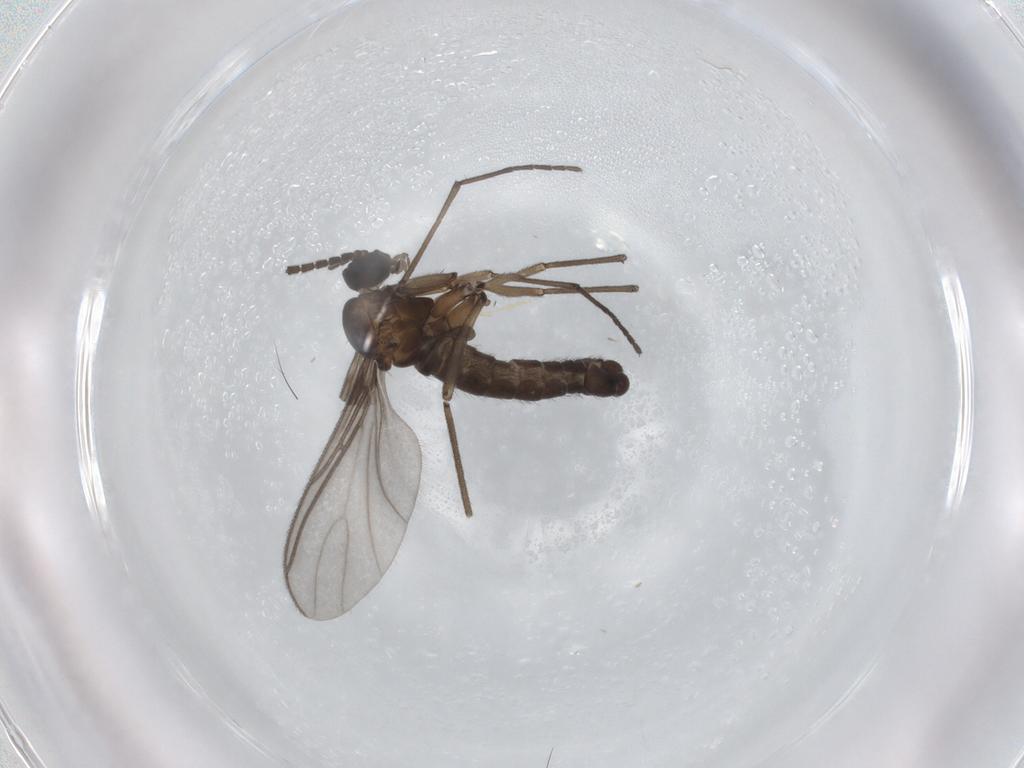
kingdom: Animalia
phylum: Arthropoda
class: Insecta
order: Diptera
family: Sciaridae
